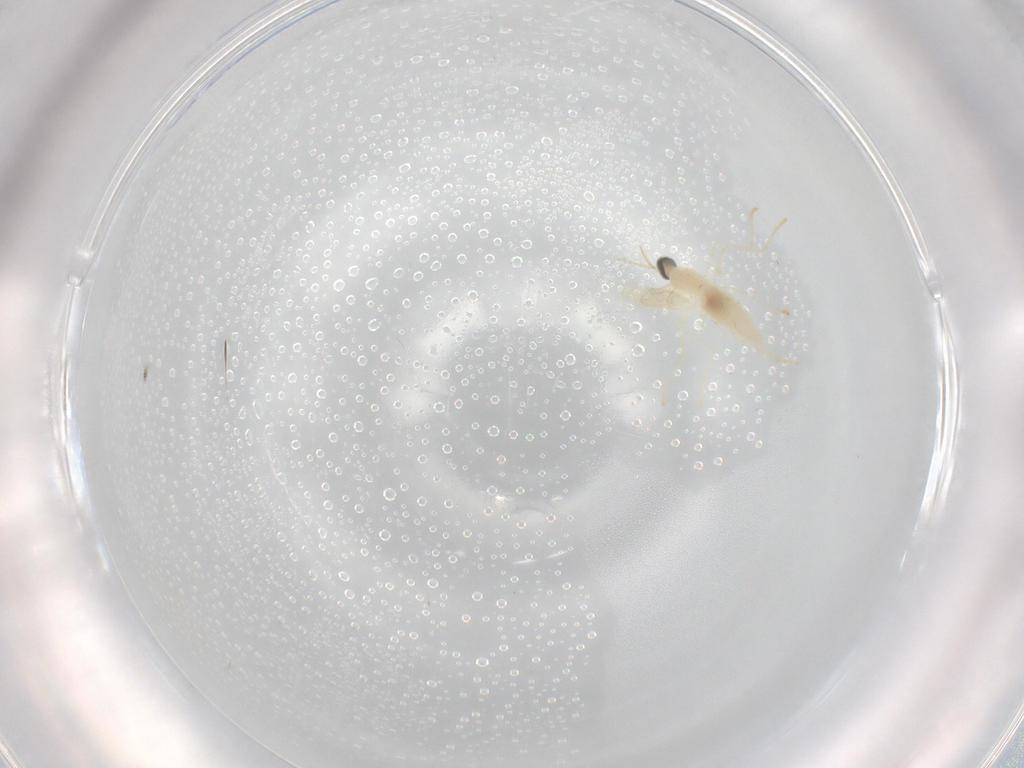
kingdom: Animalia
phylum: Arthropoda
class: Insecta
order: Diptera
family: Cecidomyiidae
